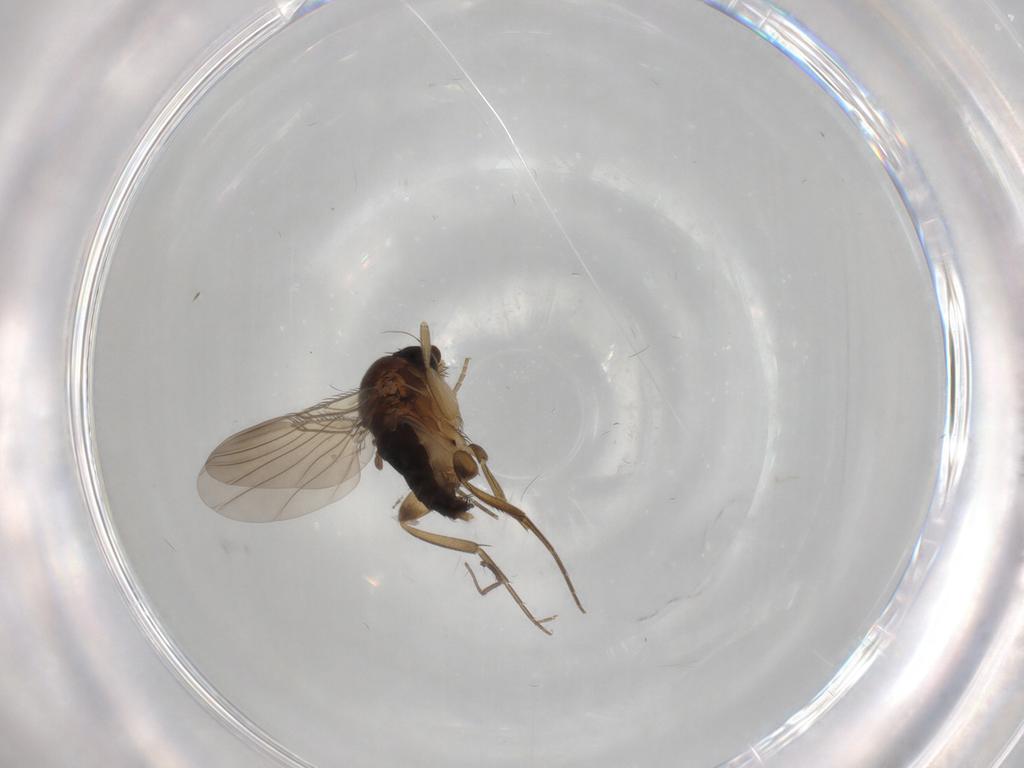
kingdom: Animalia
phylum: Arthropoda
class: Insecta
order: Diptera
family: Phoridae
